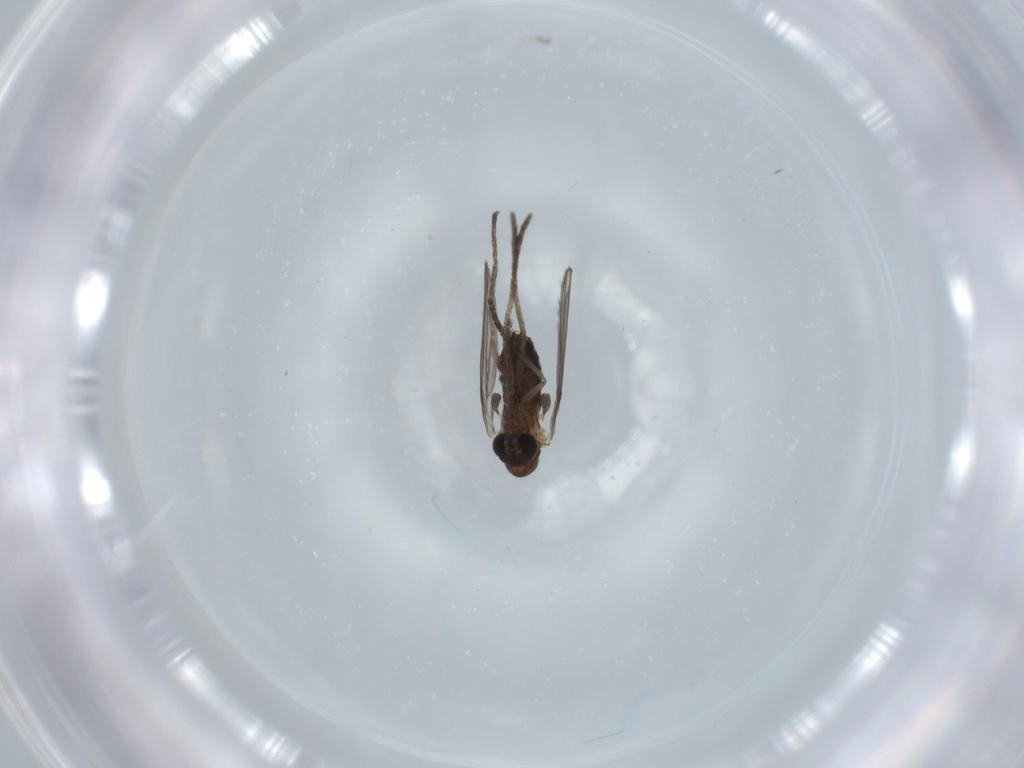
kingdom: Animalia
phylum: Arthropoda
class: Insecta
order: Diptera
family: Psychodidae
